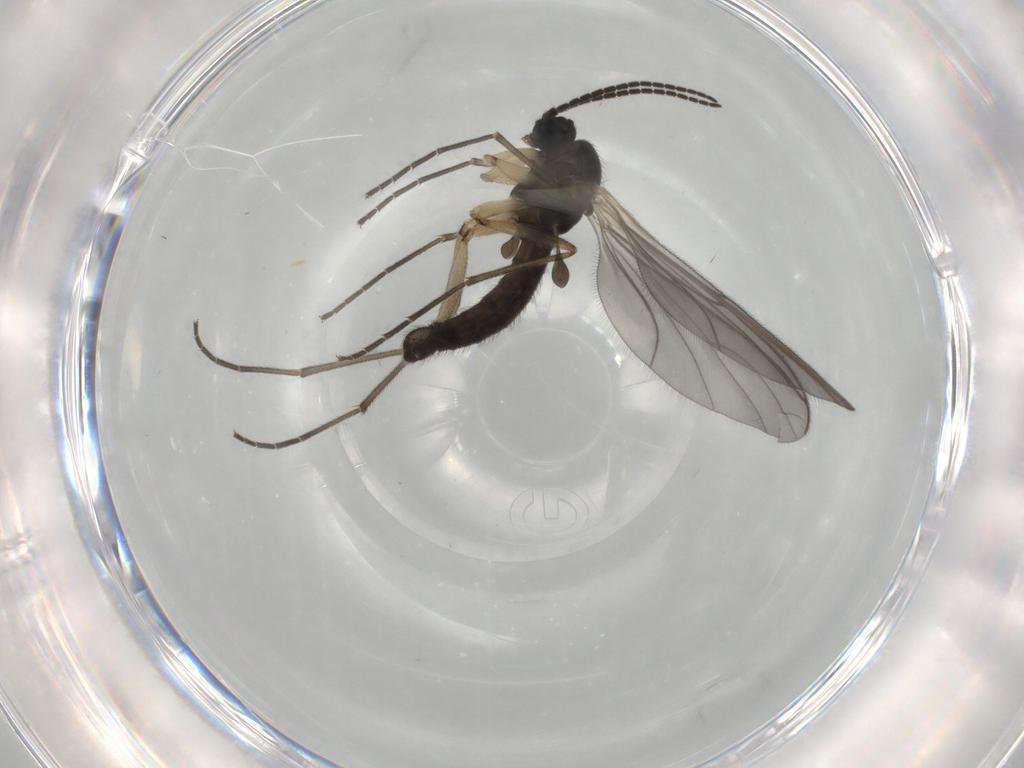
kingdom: Animalia
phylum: Arthropoda
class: Insecta
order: Diptera
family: Sciaridae
